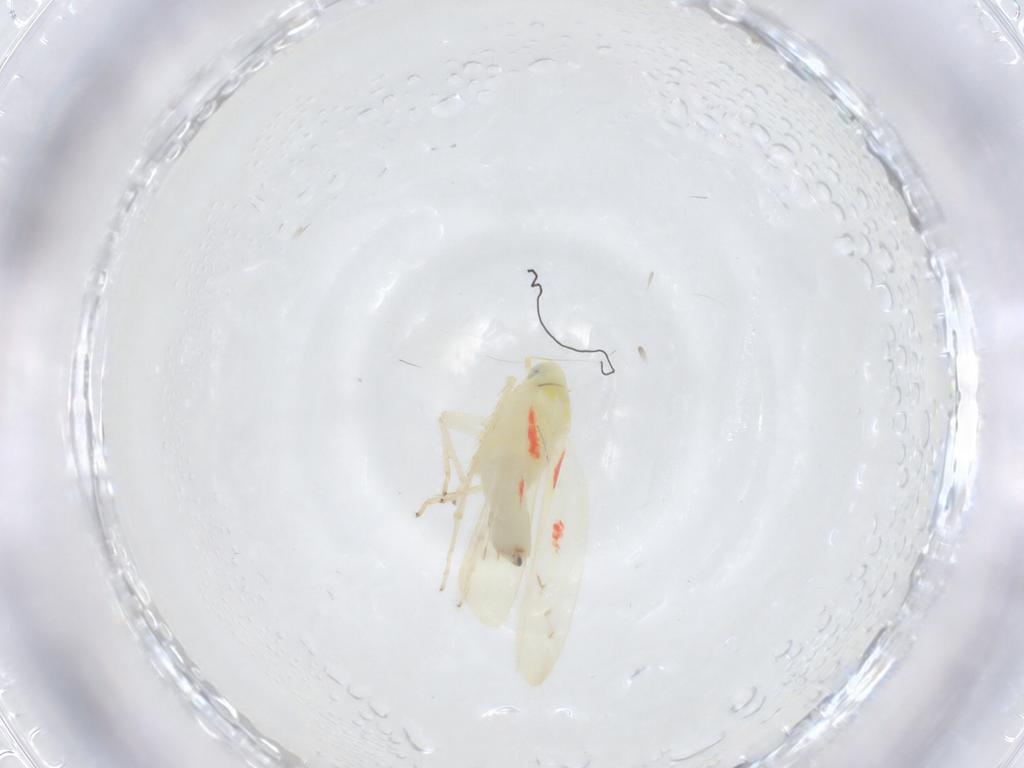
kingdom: Animalia
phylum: Arthropoda
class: Insecta
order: Hemiptera
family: Cicadellidae
